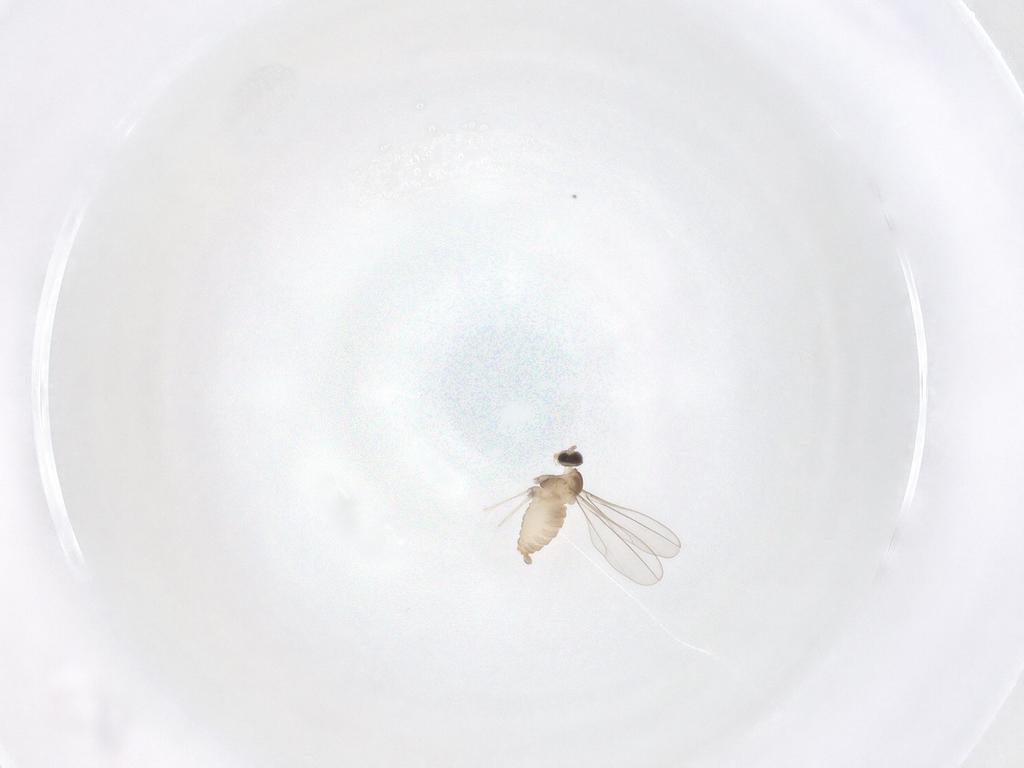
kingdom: Animalia
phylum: Arthropoda
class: Insecta
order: Diptera
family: Cecidomyiidae
